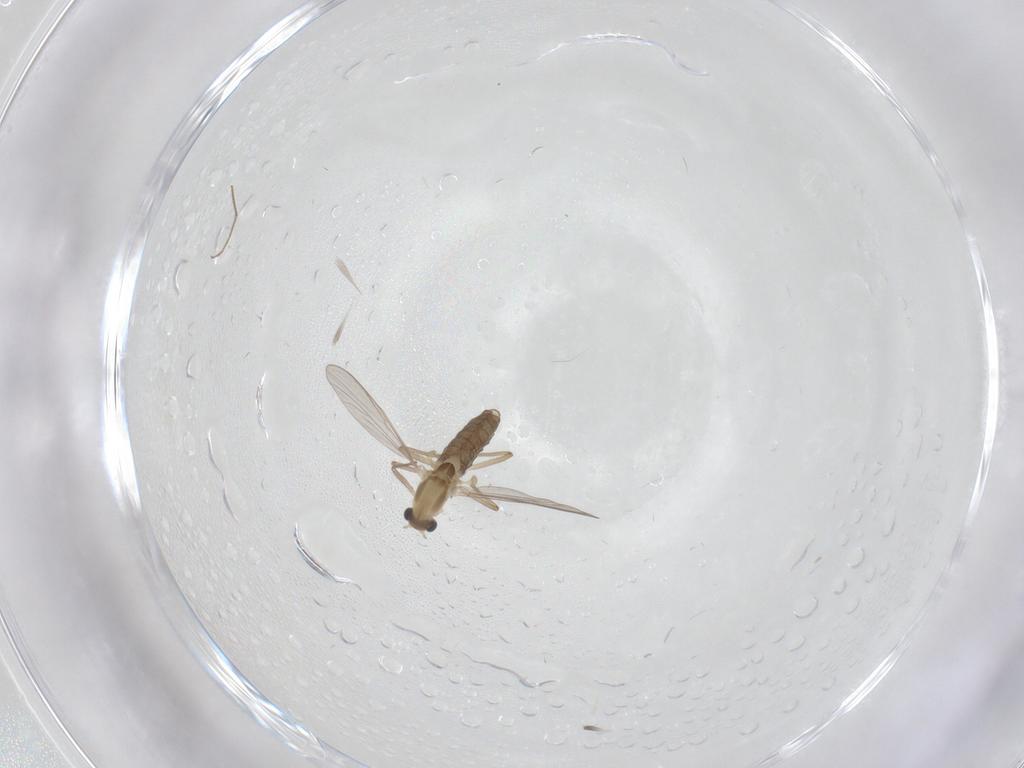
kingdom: Animalia
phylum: Arthropoda
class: Insecta
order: Diptera
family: Chironomidae
